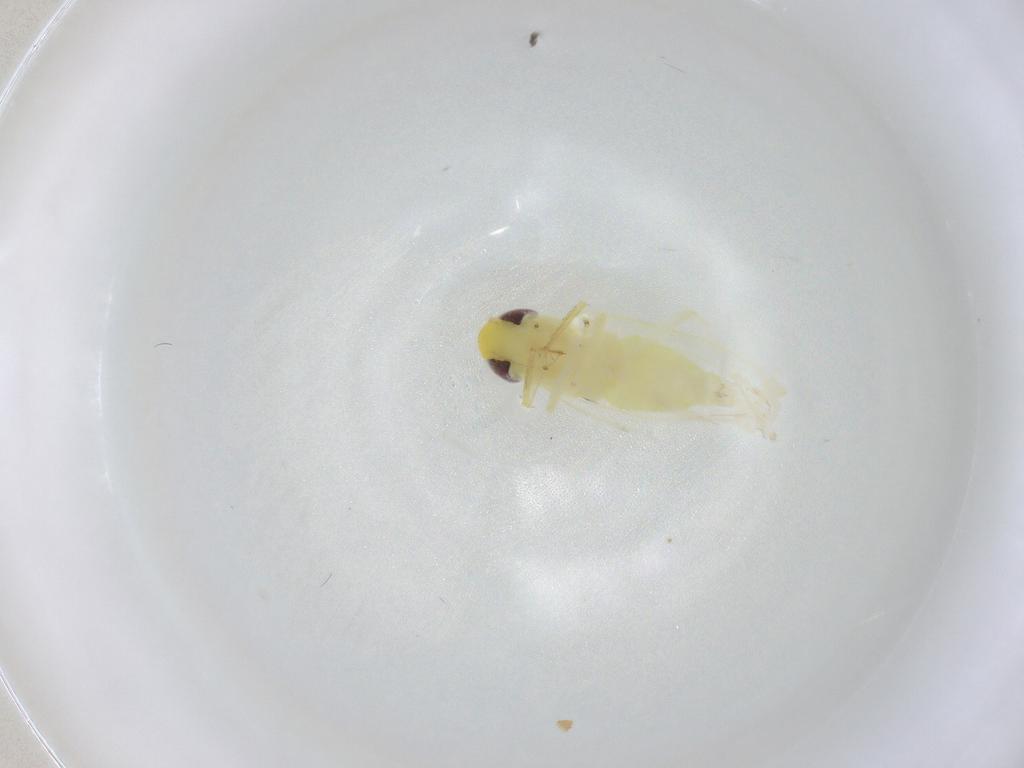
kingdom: Animalia
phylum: Arthropoda
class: Insecta
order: Hemiptera
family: Cicadellidae
